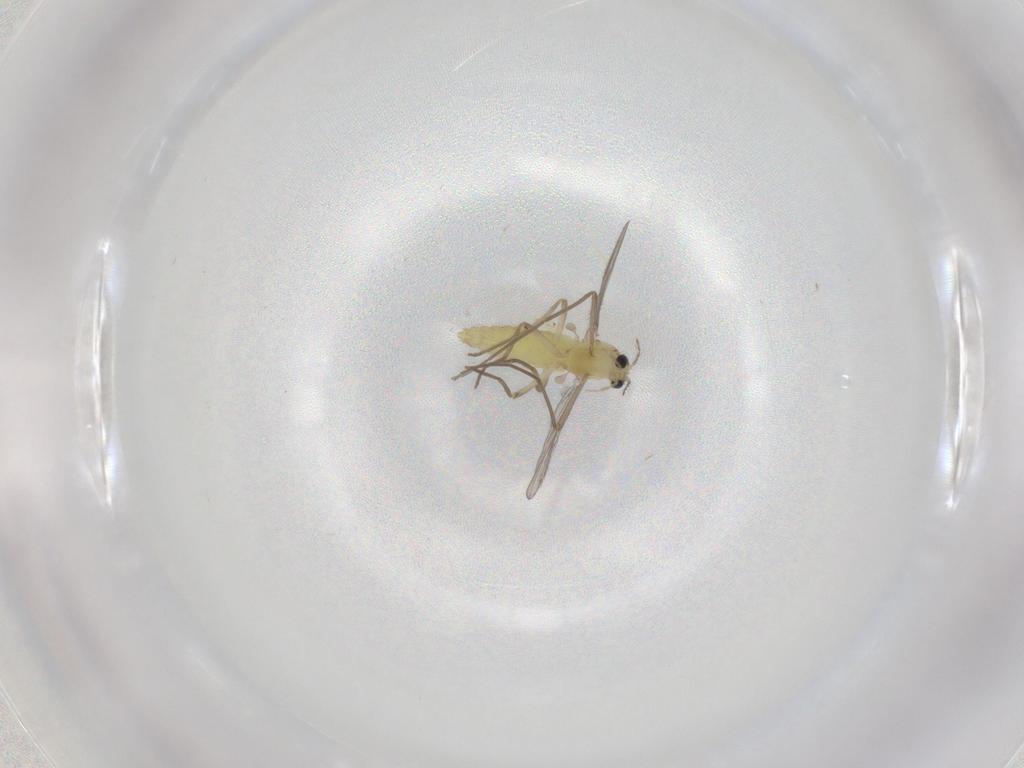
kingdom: Animalia
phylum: Arthropoda
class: Insecta
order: Diptera
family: Chironomidae
